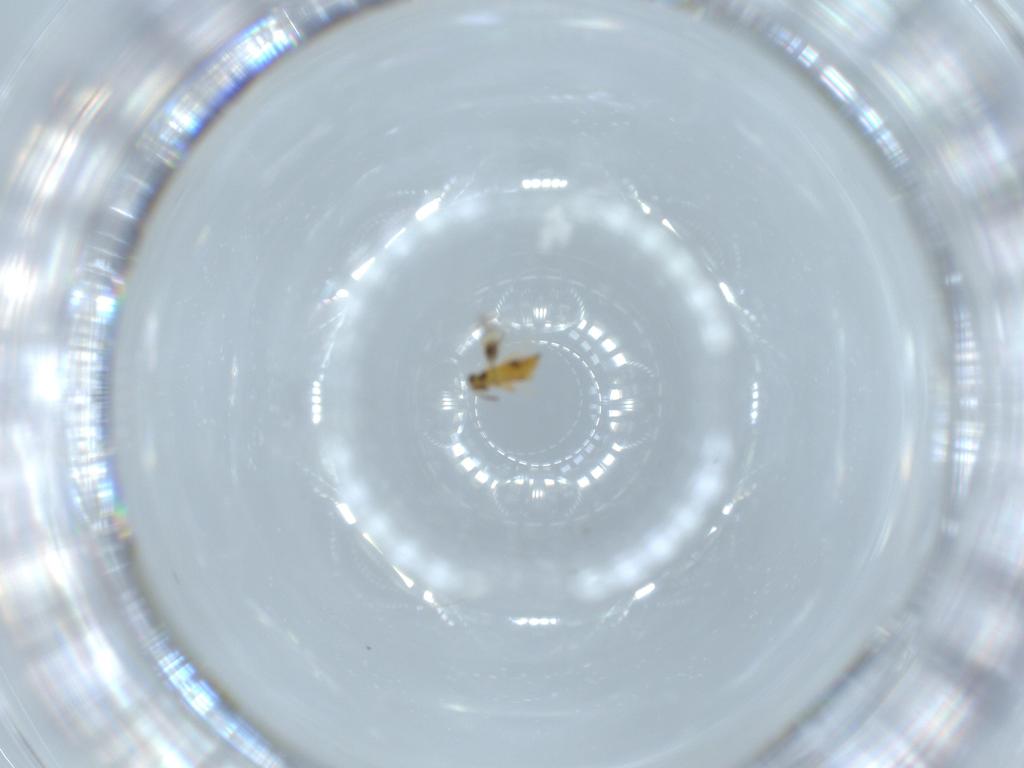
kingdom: Animalia
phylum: Arthropoda
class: Insecta
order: Hymenoptera
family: Signiphoridae
